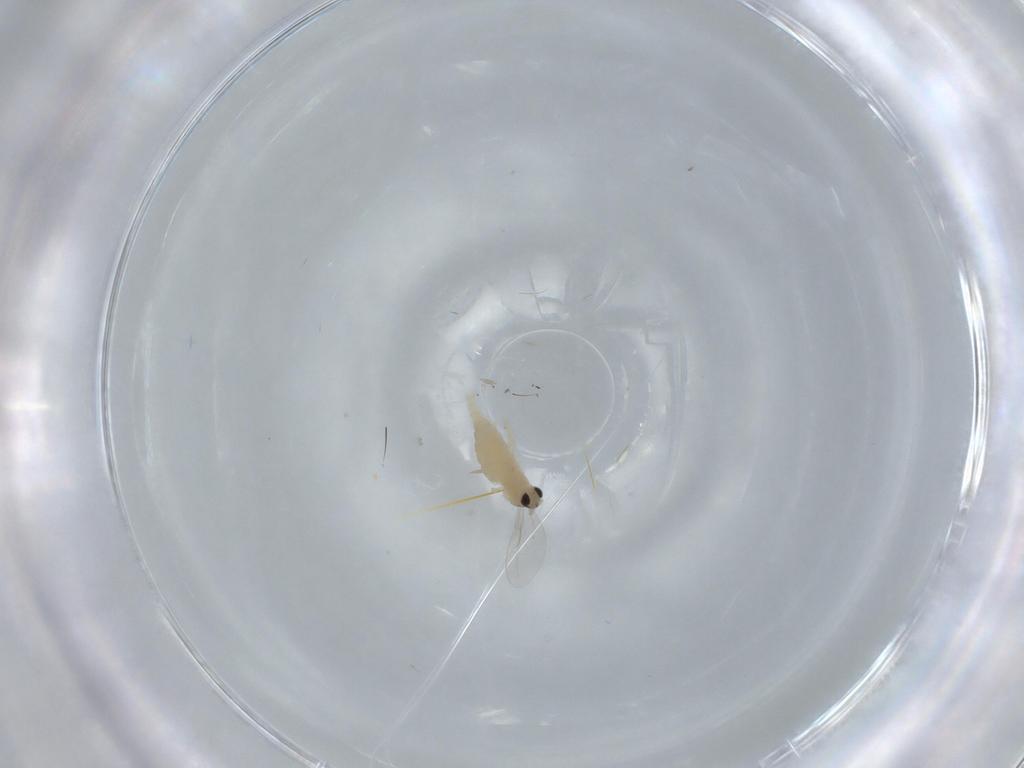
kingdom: Animalia
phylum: Arthropoda
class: Insecta
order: Diptera
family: Cecidomyiidae
